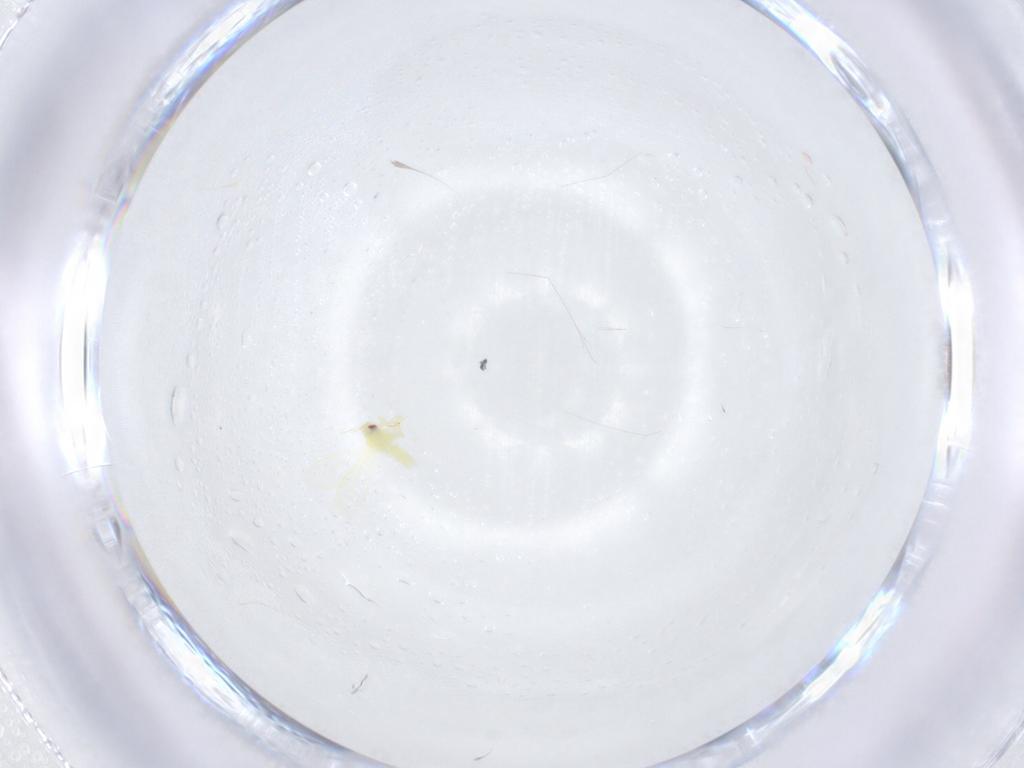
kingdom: Animalia
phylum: Arthropoda
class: Insecta
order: Hemiptera
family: Aleyrodidae
